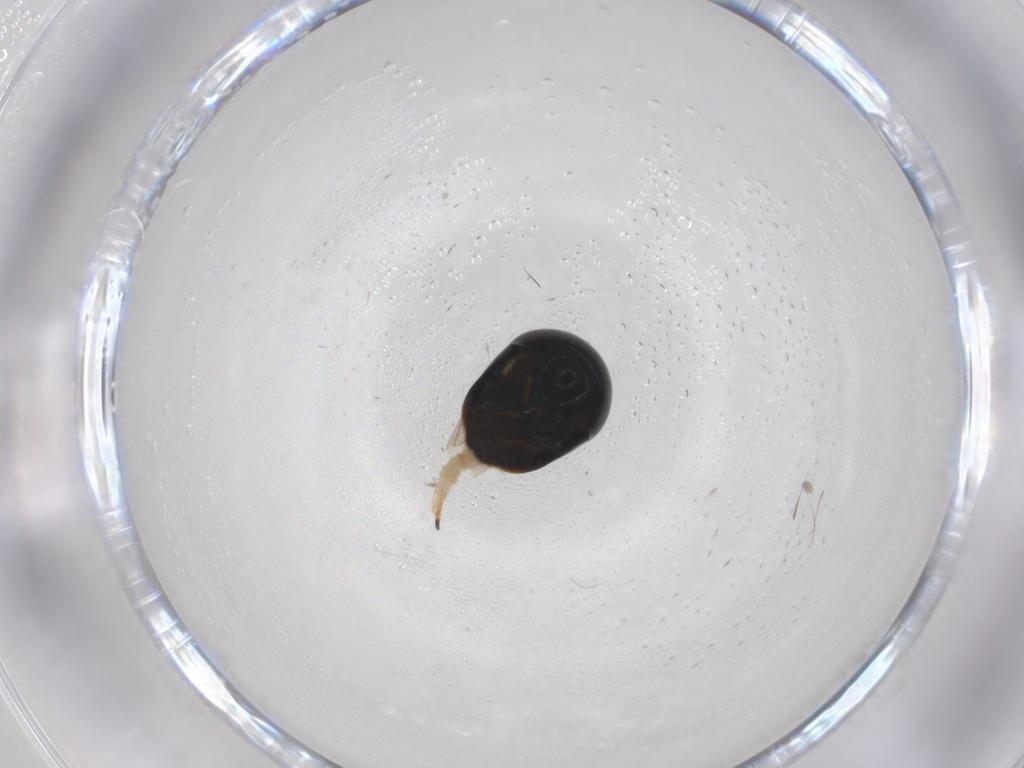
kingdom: Animalia
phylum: Arthropoda
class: Insecta
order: Coleoptera
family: Cybocephalidae
